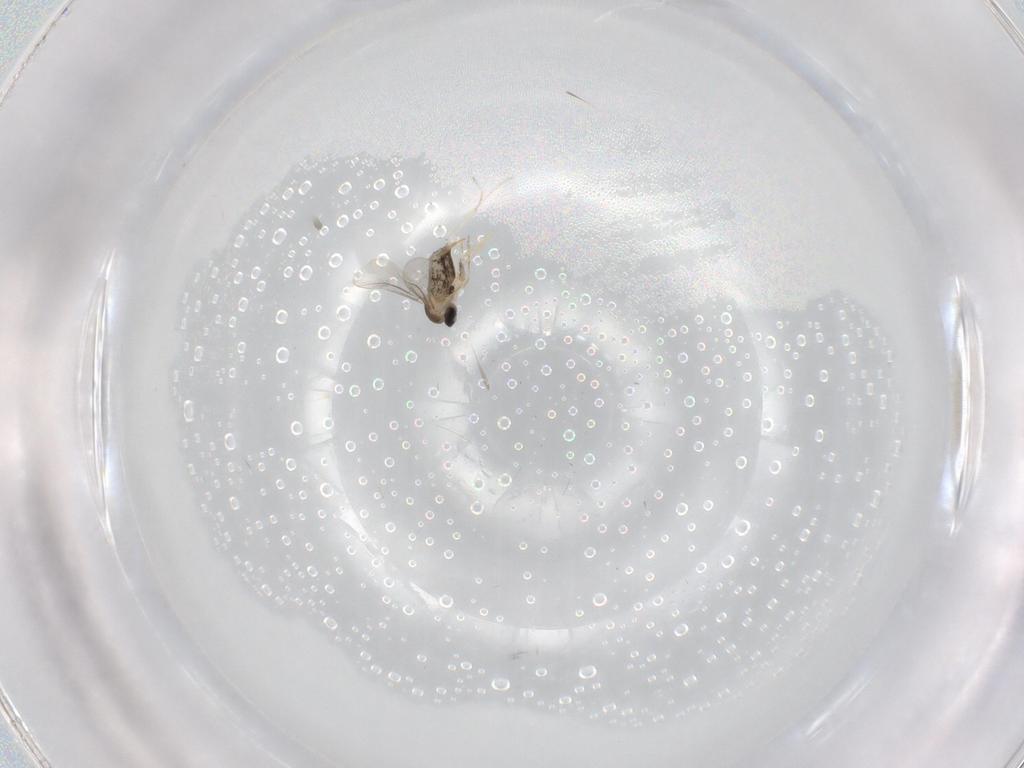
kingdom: Animalia
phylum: Arthropoda
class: Insecta
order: Diptera
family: Cecidomyiidae
